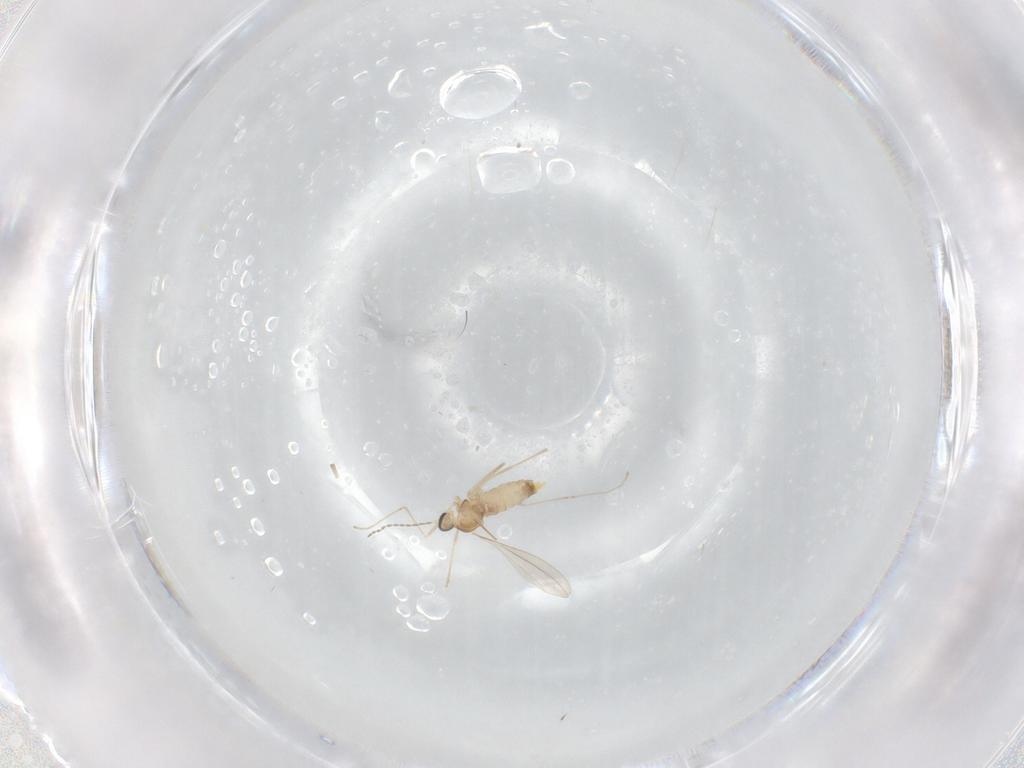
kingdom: Animalia
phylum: Arthropoda
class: Insecta
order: Diptera
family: Cecidomyiidae
